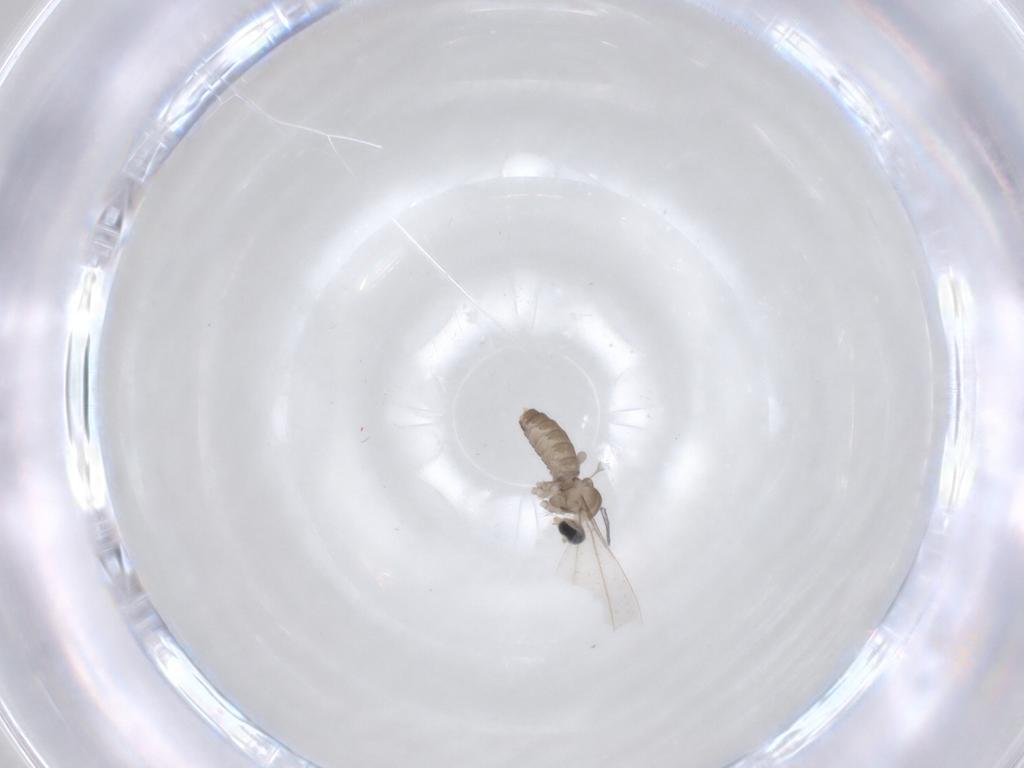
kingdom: Animalia
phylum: Arthropoda
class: Insecta
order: Diptera
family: Cecidomyiidae
